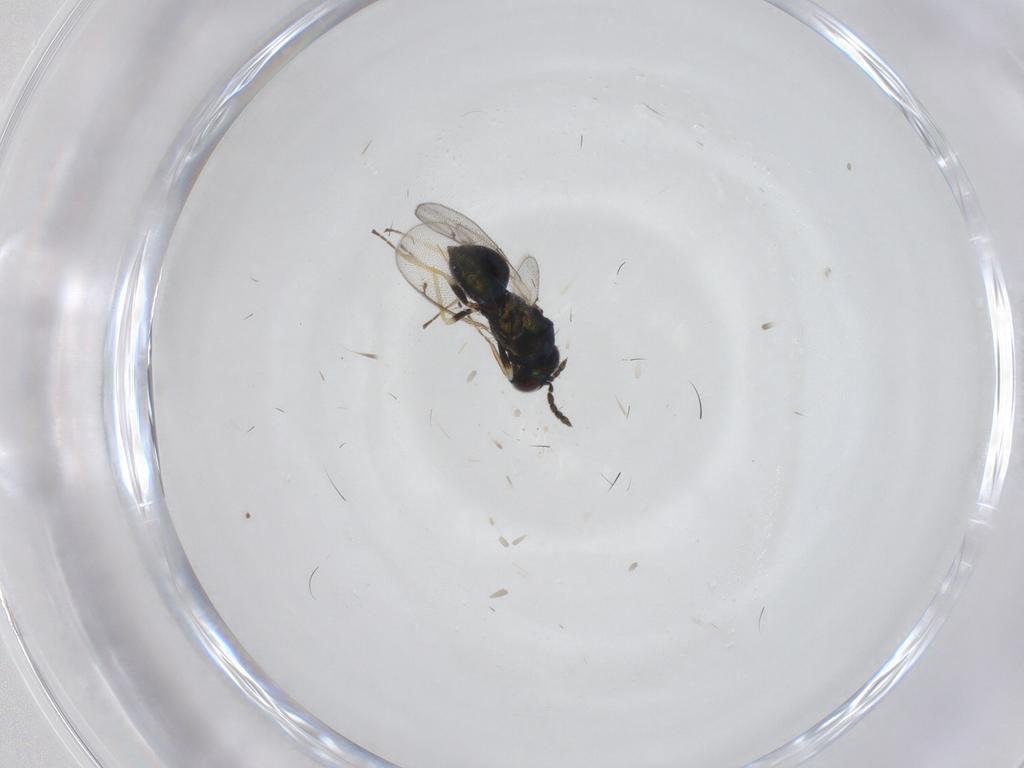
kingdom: Animalia
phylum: Arthropoda
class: Insecta
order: Hymenoptera
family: Eulophidae
